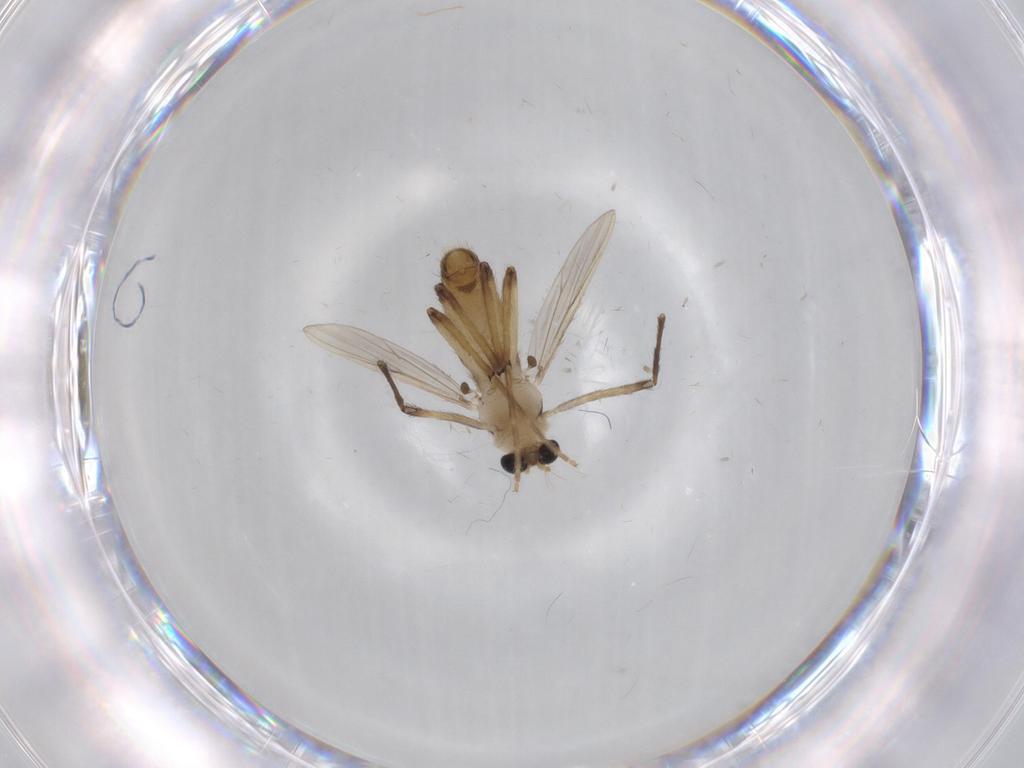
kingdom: Animalia
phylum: Arthropoda
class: Insecta
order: Diptera
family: Chironomidae
